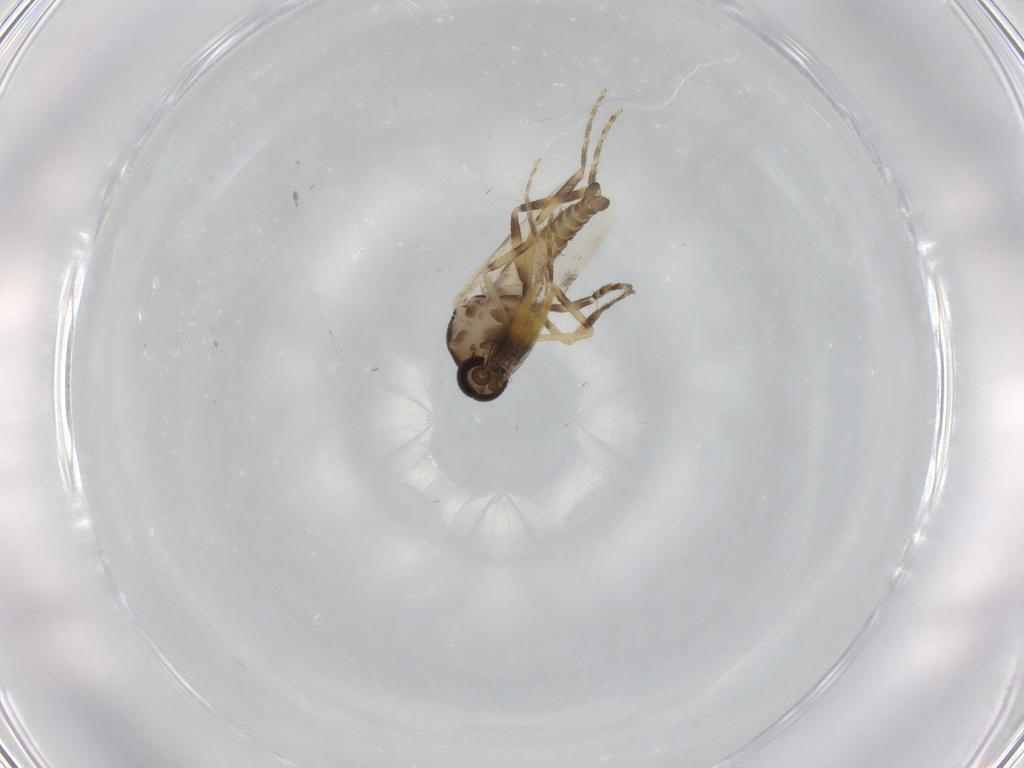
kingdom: Animalia
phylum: Arthropoda
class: Insecta
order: Diptera
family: Ceratopogonidae
